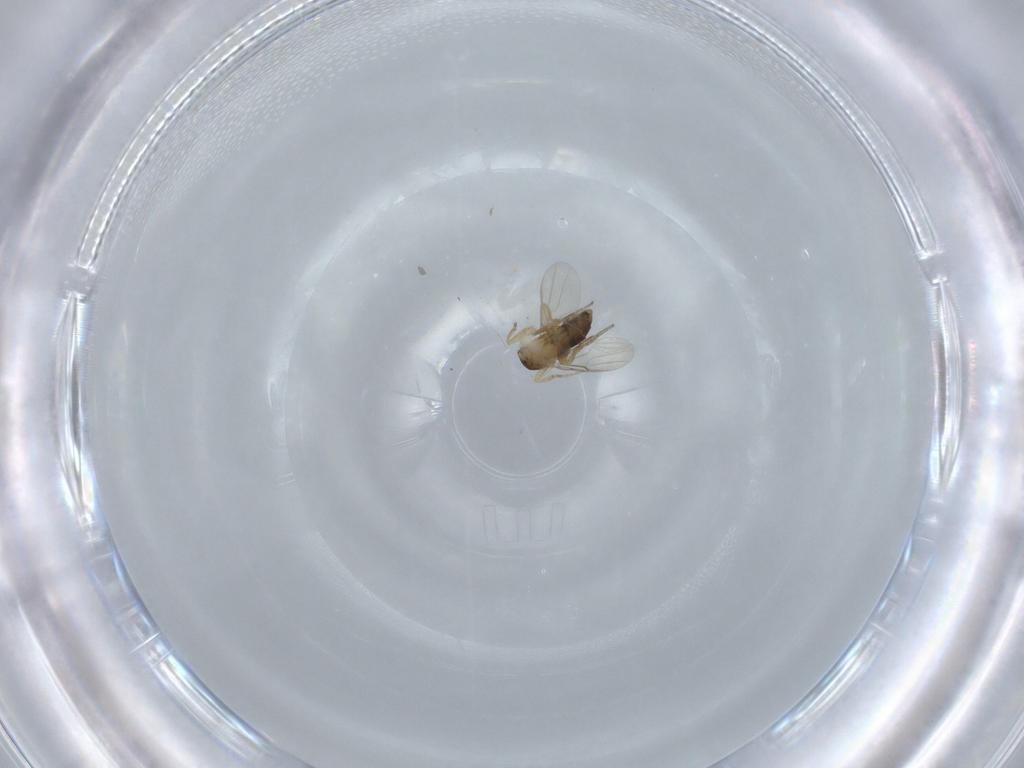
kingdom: Animalia
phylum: Arthropoda
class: Insecta
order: Diptera
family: Phoridae
